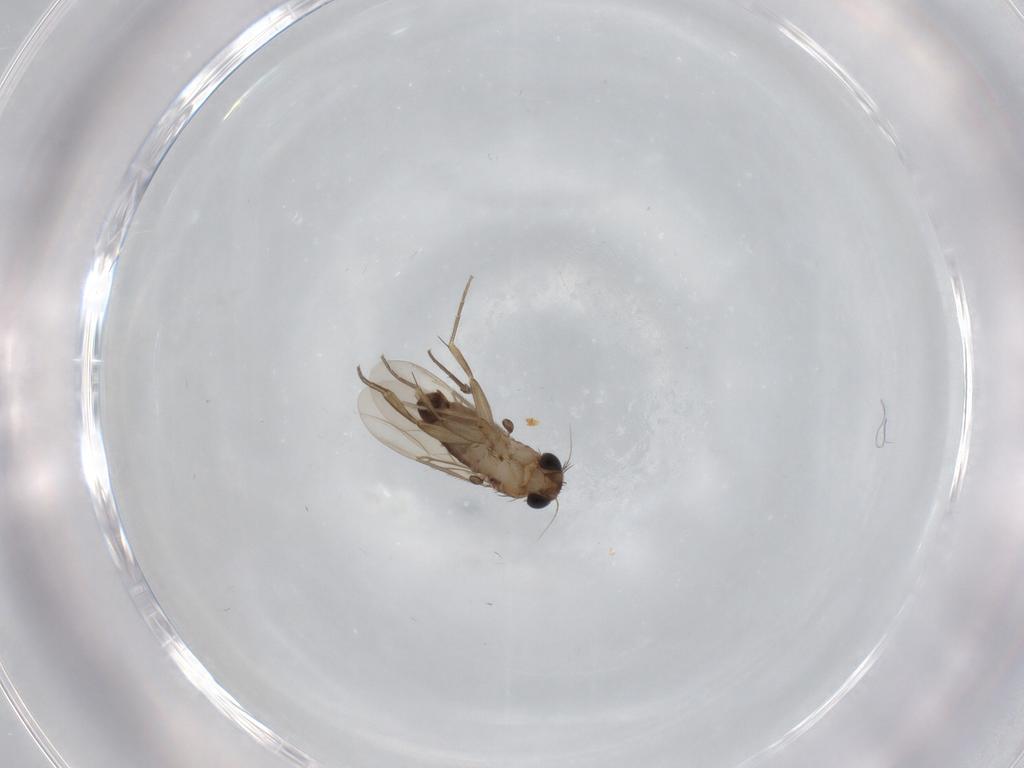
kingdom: Animalia
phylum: Arthropoda
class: Insecta
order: Diptera
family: Phoridae
